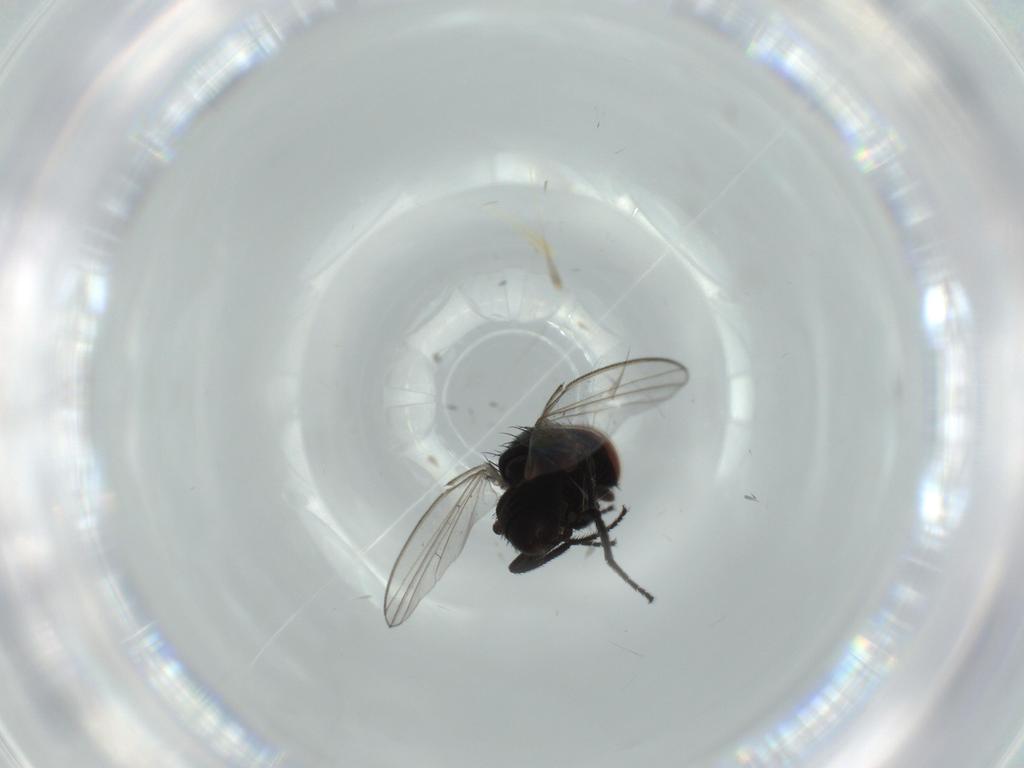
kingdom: Animalia
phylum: Arthropoda
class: Insecta
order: Diptera
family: Milichiidae
